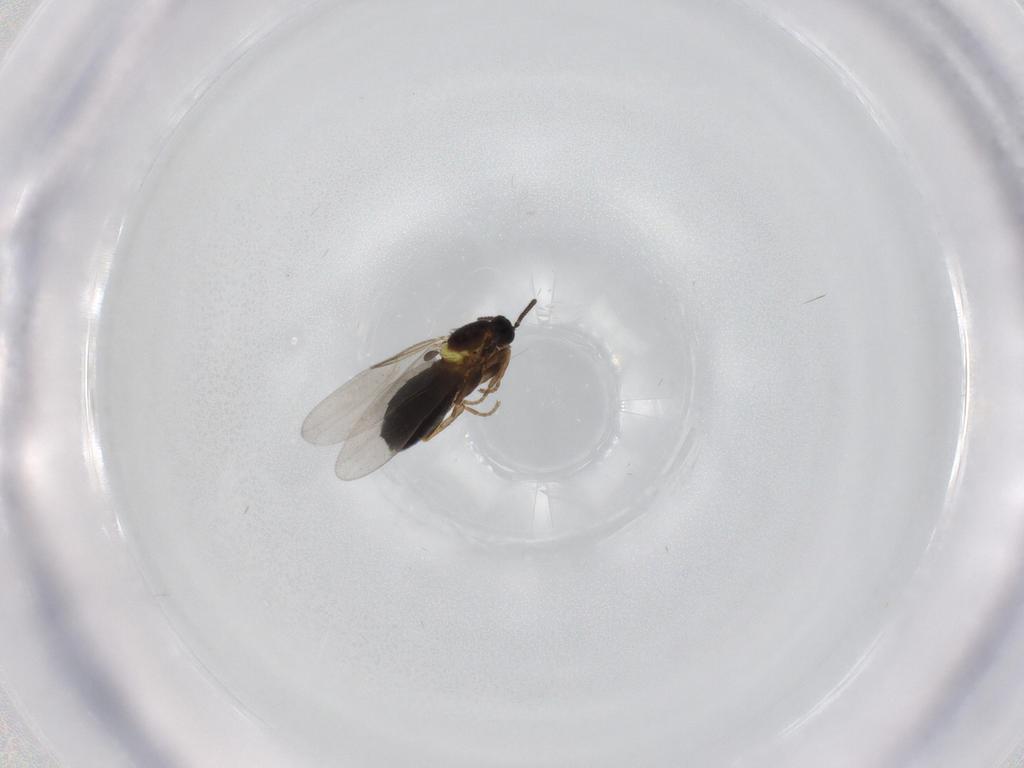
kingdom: Animalia
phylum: Arthropoda
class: Insecta
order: Diptera
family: Scatopsidae
